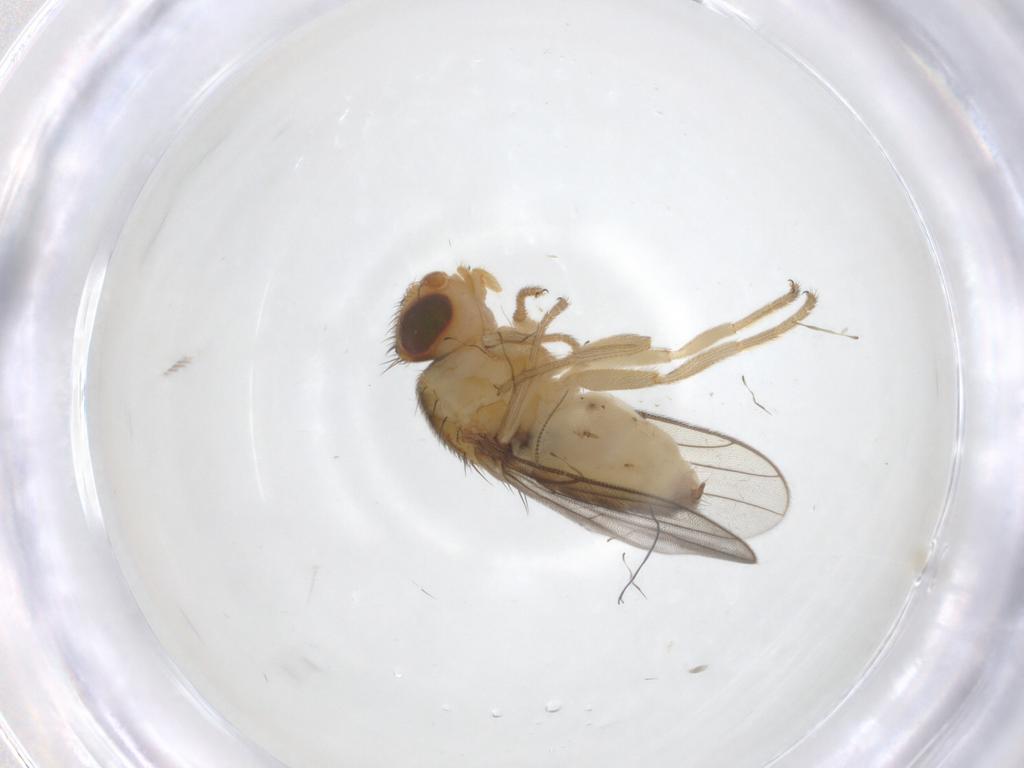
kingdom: Animalia
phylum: Arthropoda
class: Insecta
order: Diptera
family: Chloropidae
